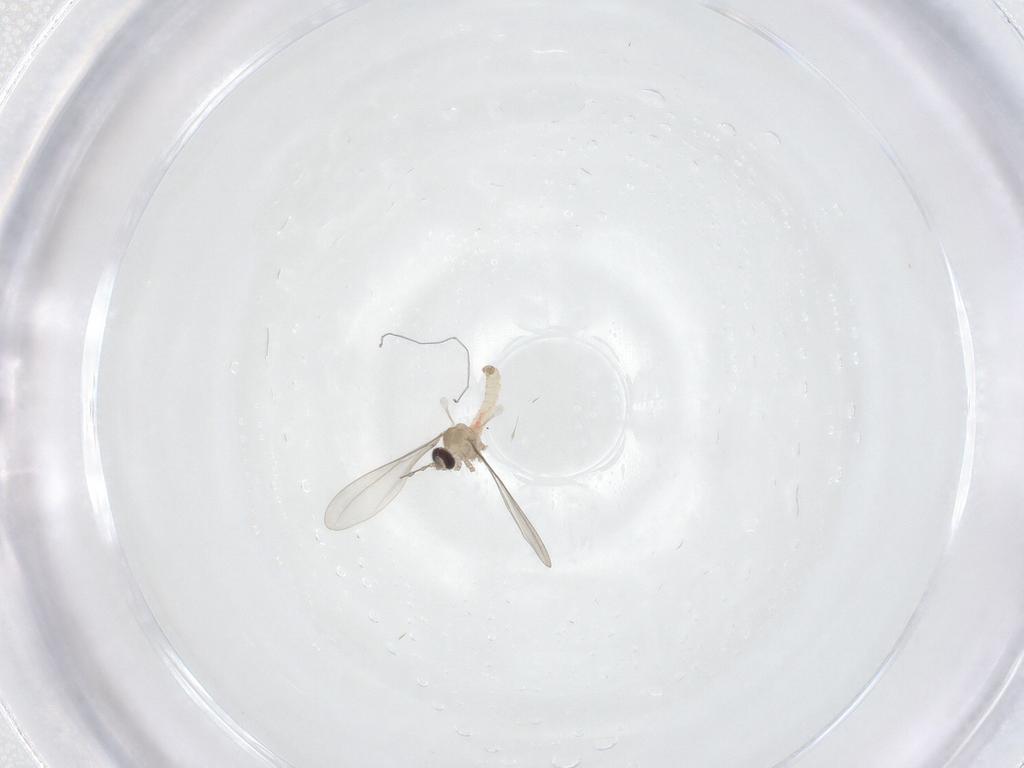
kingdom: Animalia
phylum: Arthropoda
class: Insecta
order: Diptera
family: Cecidomyiidae
